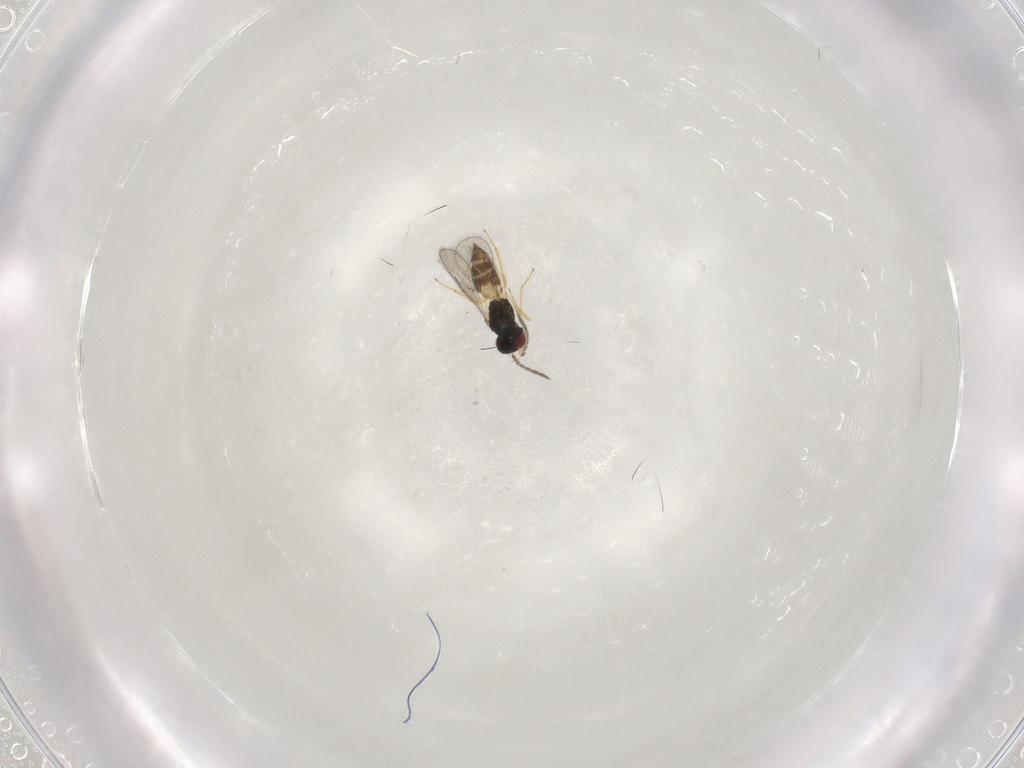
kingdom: Animalia
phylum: Arthropoda
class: Insecta
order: Hymenoptera
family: Eulophidae
